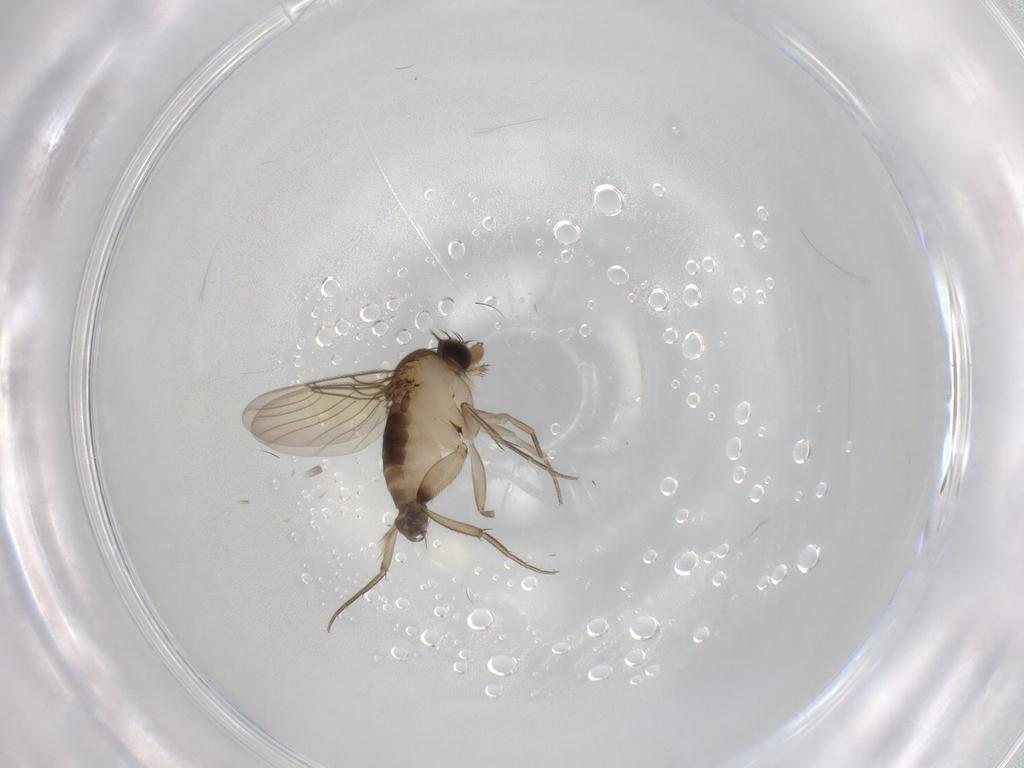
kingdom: Animalia
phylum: Arthropoda
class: Insecta
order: Diptera
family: Phoridae
